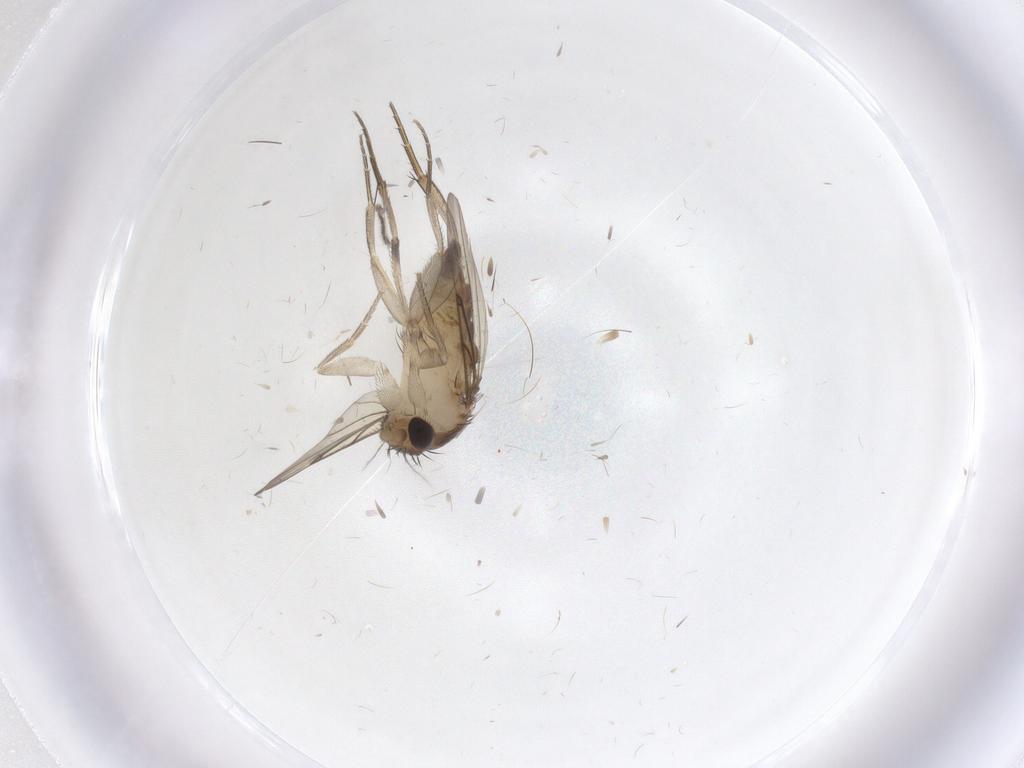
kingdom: Animalia
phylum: Arthropoda
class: Insecta
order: Diptera
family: Phoridae
